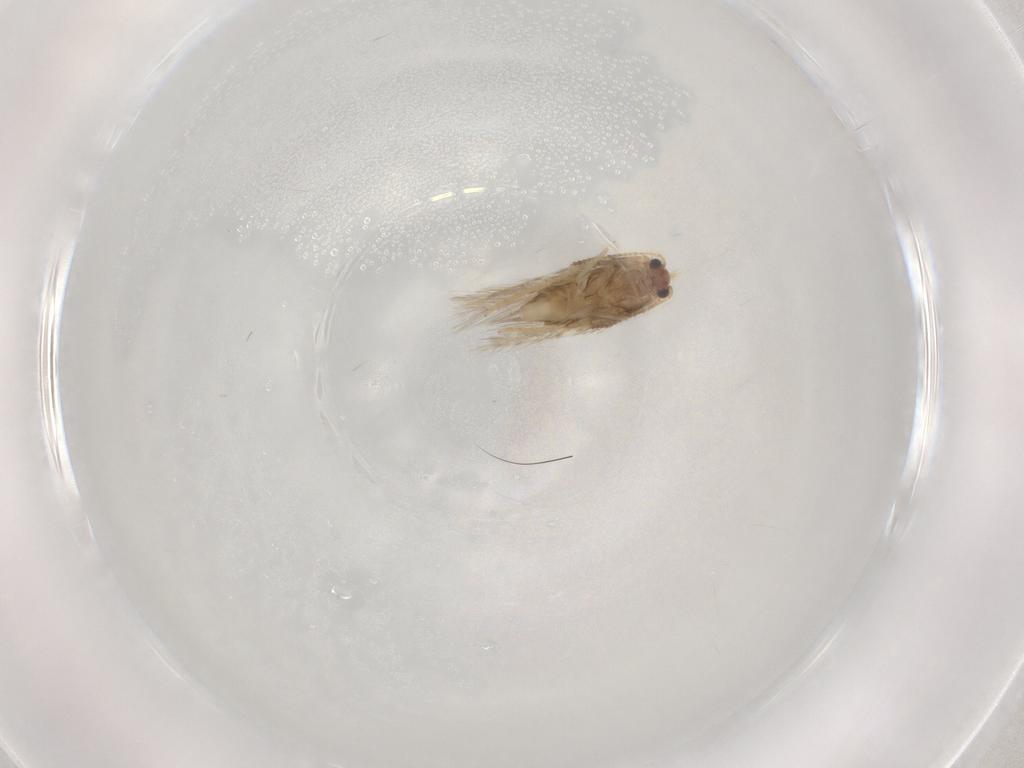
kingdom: Animalia
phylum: Arthropoda
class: Insecta
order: Lepidoptera
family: Nepticulidae
